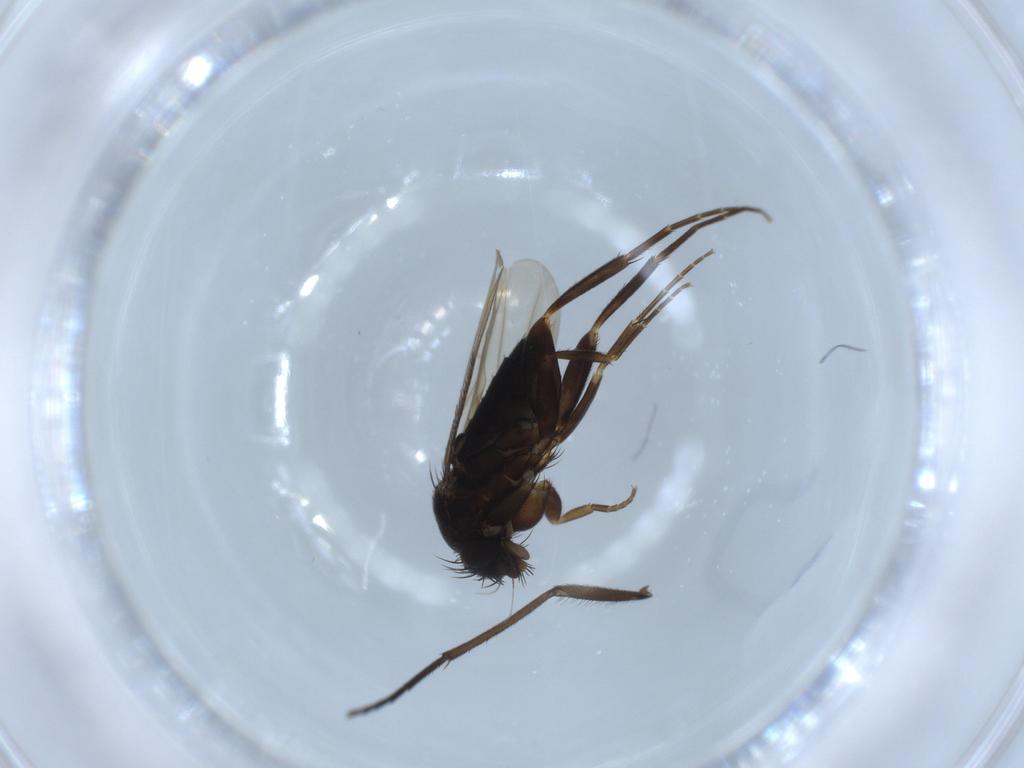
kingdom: Animalia
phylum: Arthropoda
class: Insecta
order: Diptera
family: Phoridae
